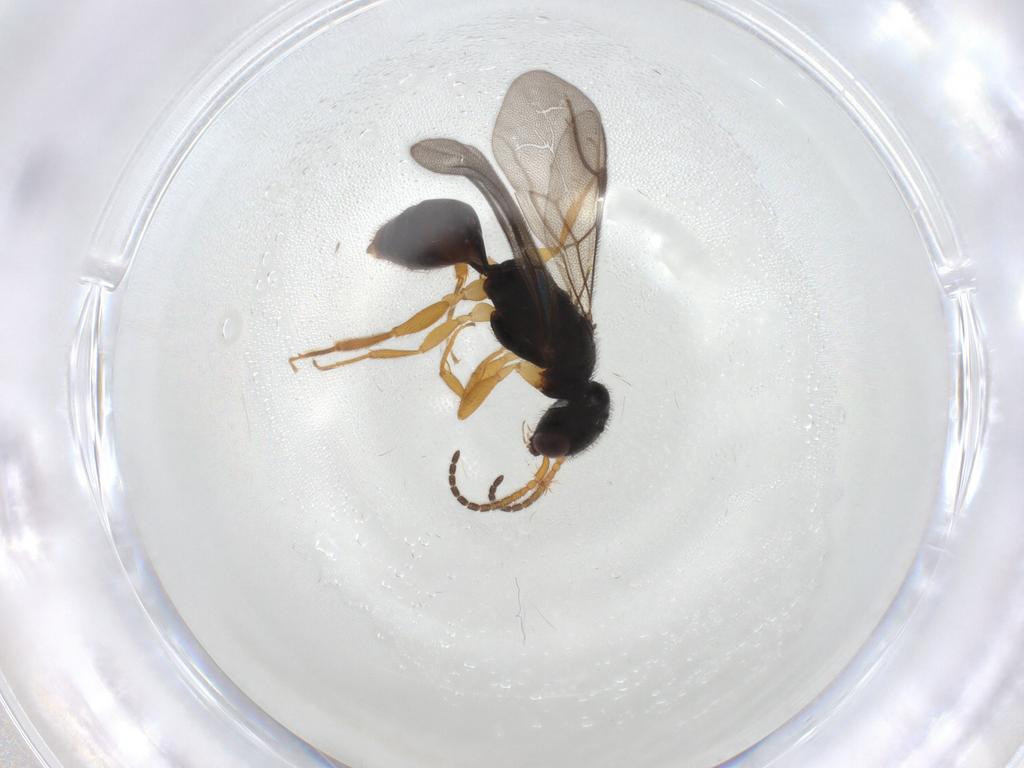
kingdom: Animalia
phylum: Arthropoda
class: Insecta
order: Hymenoptera
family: Bethylidae
